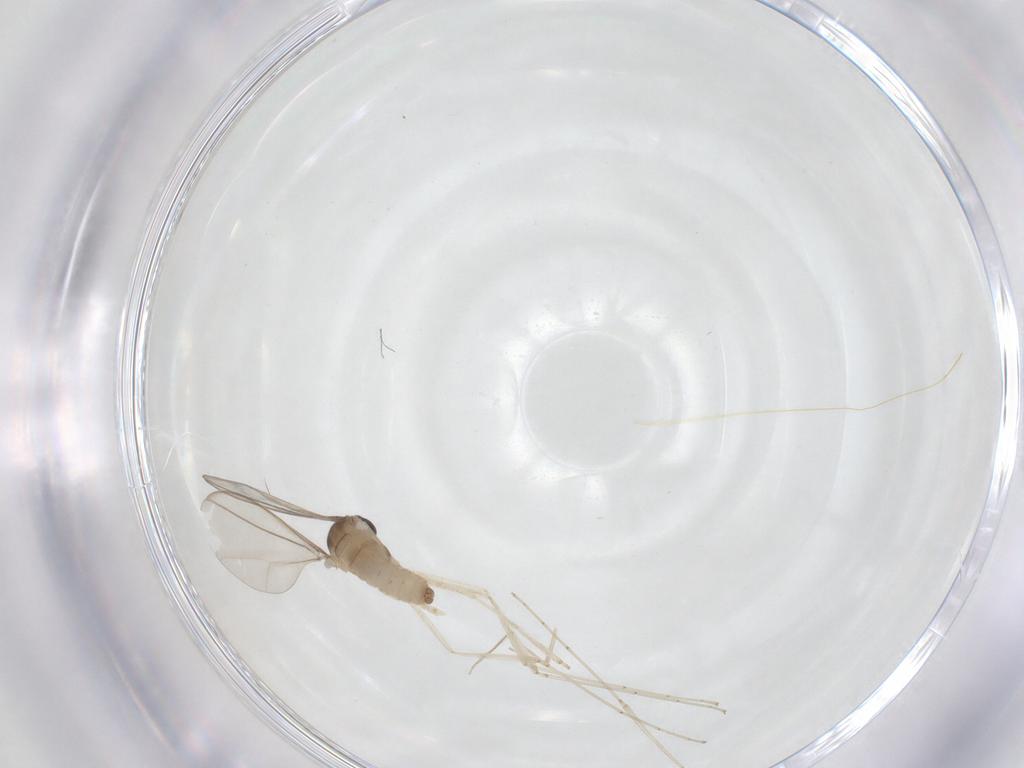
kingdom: Animalia
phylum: Arthropoda
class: Insecta
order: Diptera
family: Cecidomyiidae
